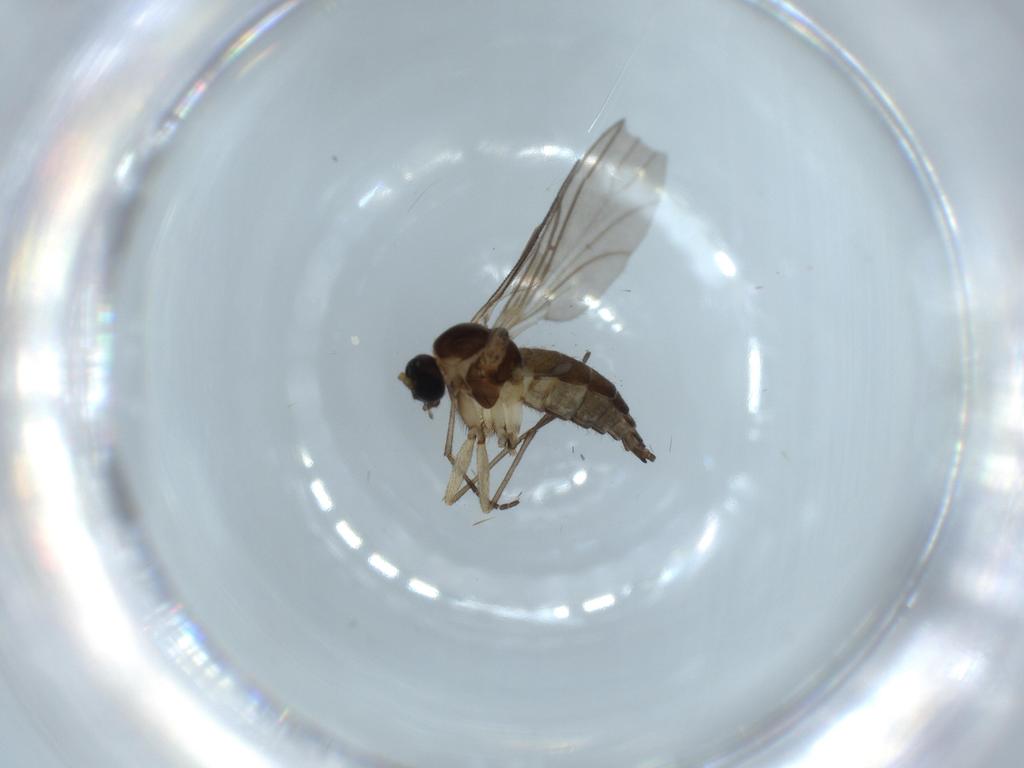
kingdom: Animalia
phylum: Arthropoda
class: Insecta
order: Diptera
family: Sciaridae
